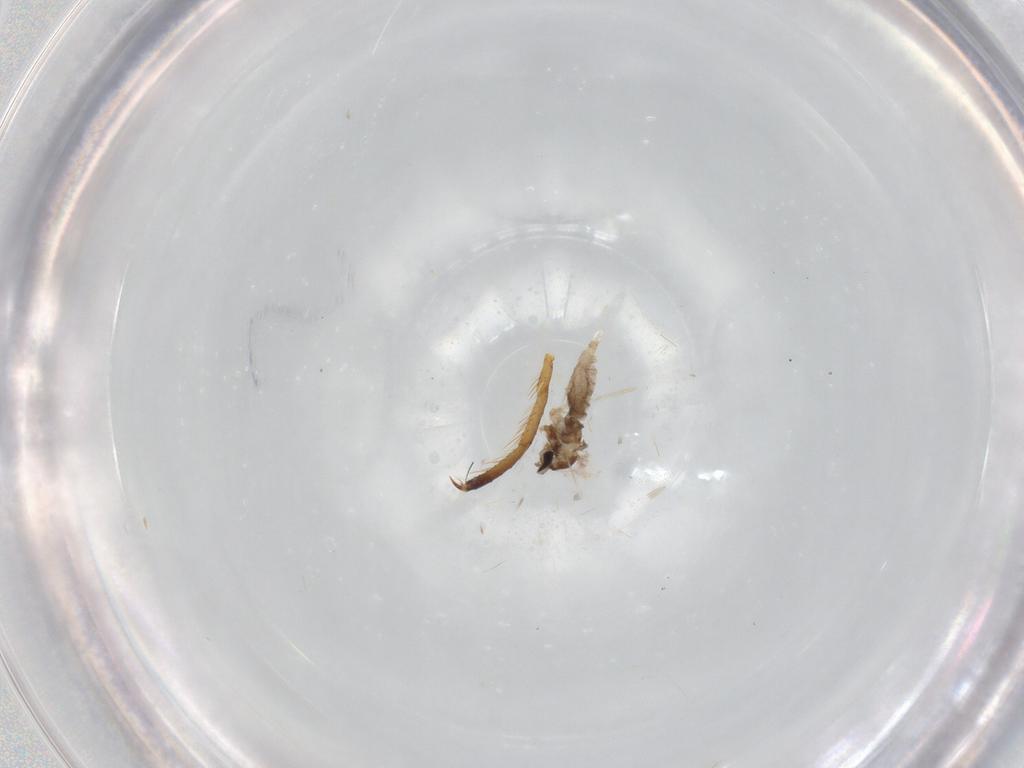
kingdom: Animalia
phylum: Arthropoda
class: Insecta
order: Diptera
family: Cecidomyiidae
